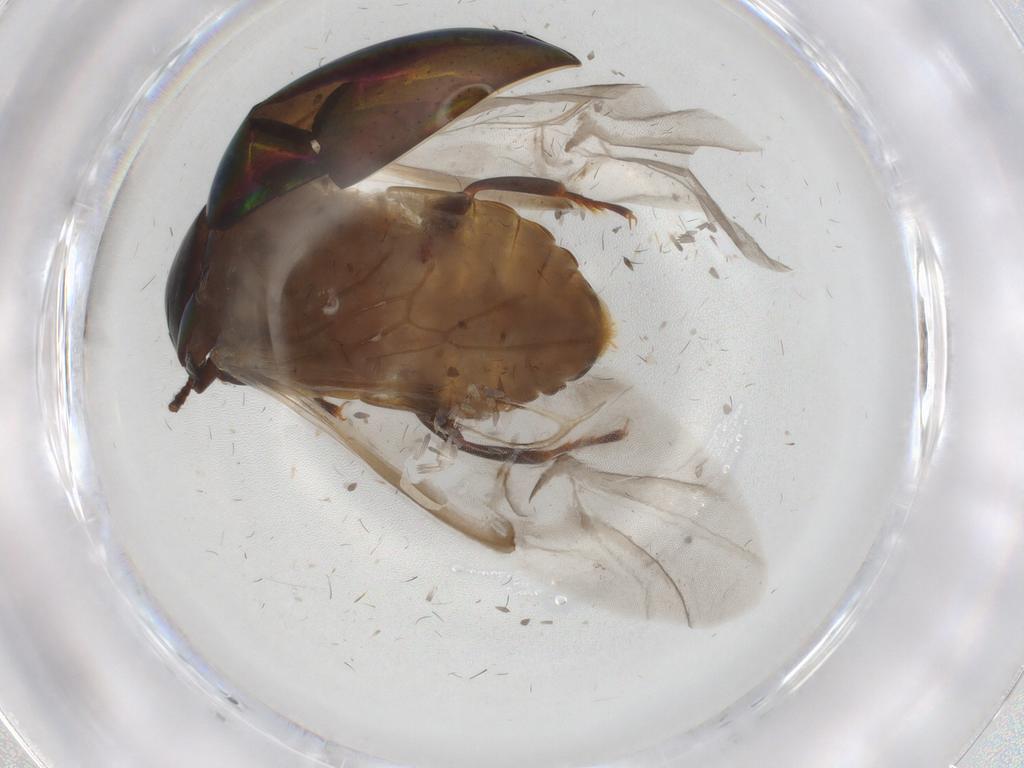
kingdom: Animalia
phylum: Arthropoda
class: Insecta
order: Coleoptera
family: Tenebrionidae
